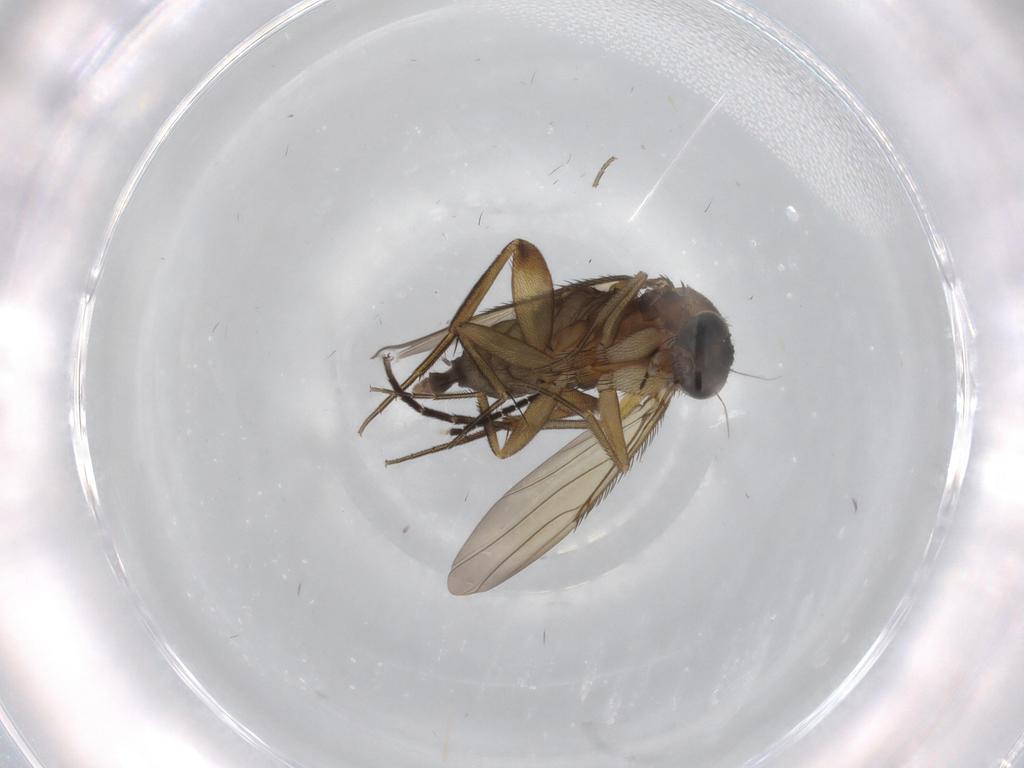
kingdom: Animalia
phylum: Arthropoda
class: Insecta
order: Diptera
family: Phoridae
